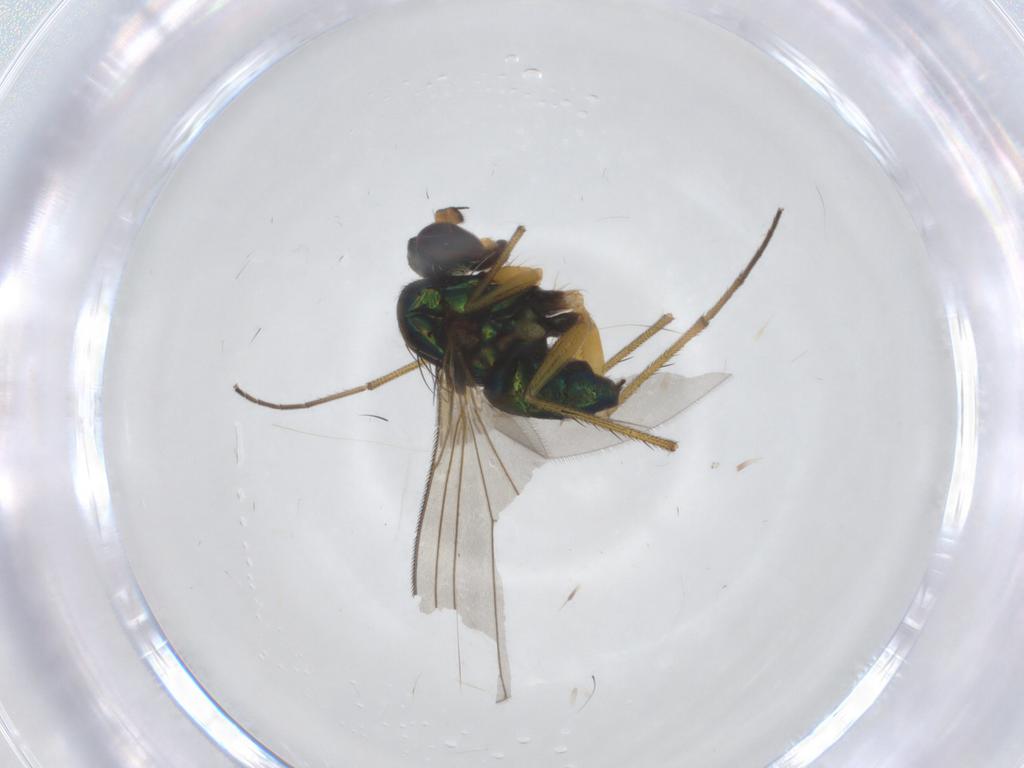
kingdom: Animalia
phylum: Arthropoda
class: Insecta
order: Diptera
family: Dolichopodidae
